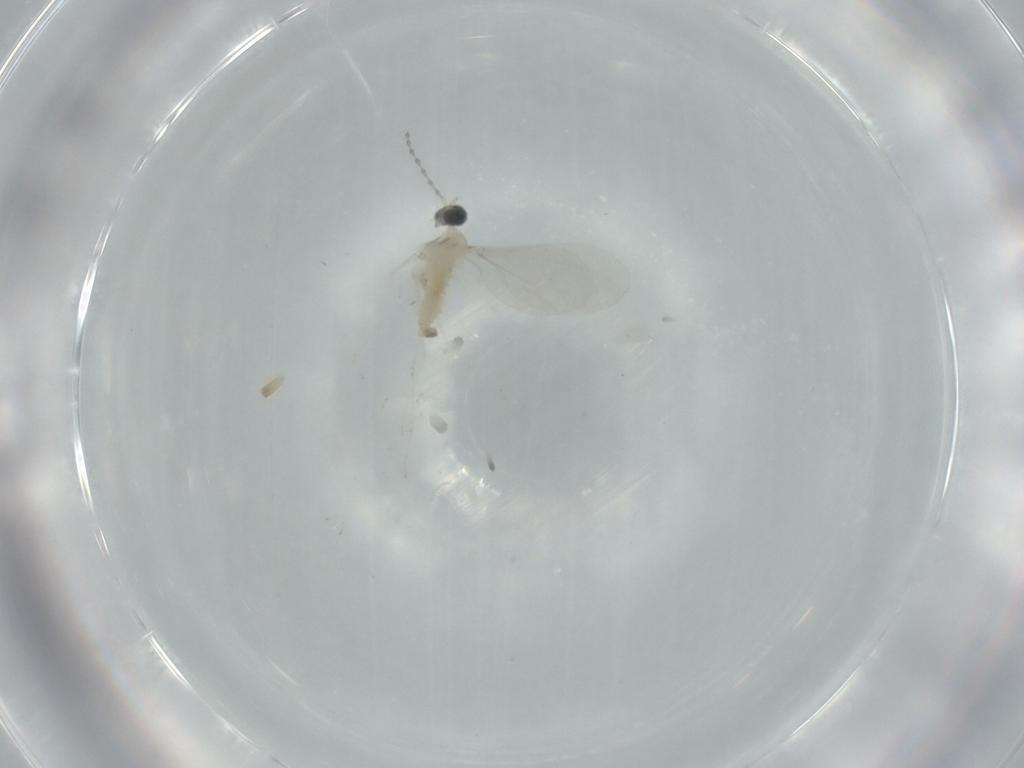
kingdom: Animalia
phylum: Arthropoda
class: Insecta
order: Diptera
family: Cecidomyiidae
